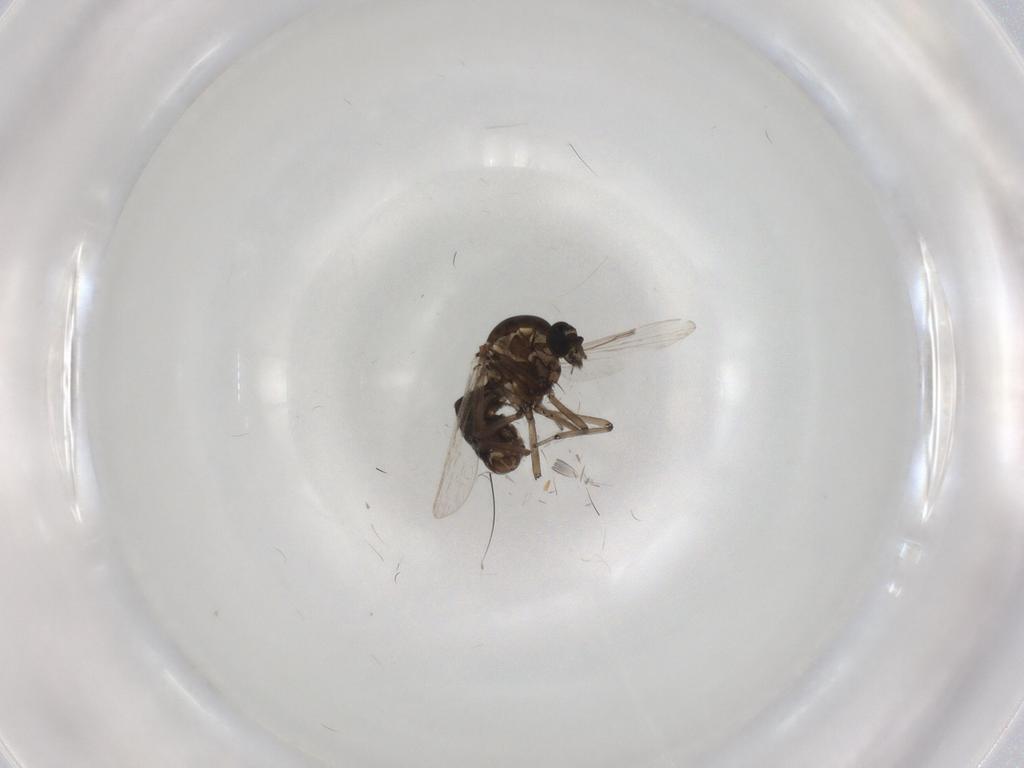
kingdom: Animalia
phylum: Arthropoda
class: Insecta
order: Diptera
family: Ceratopogonidae
